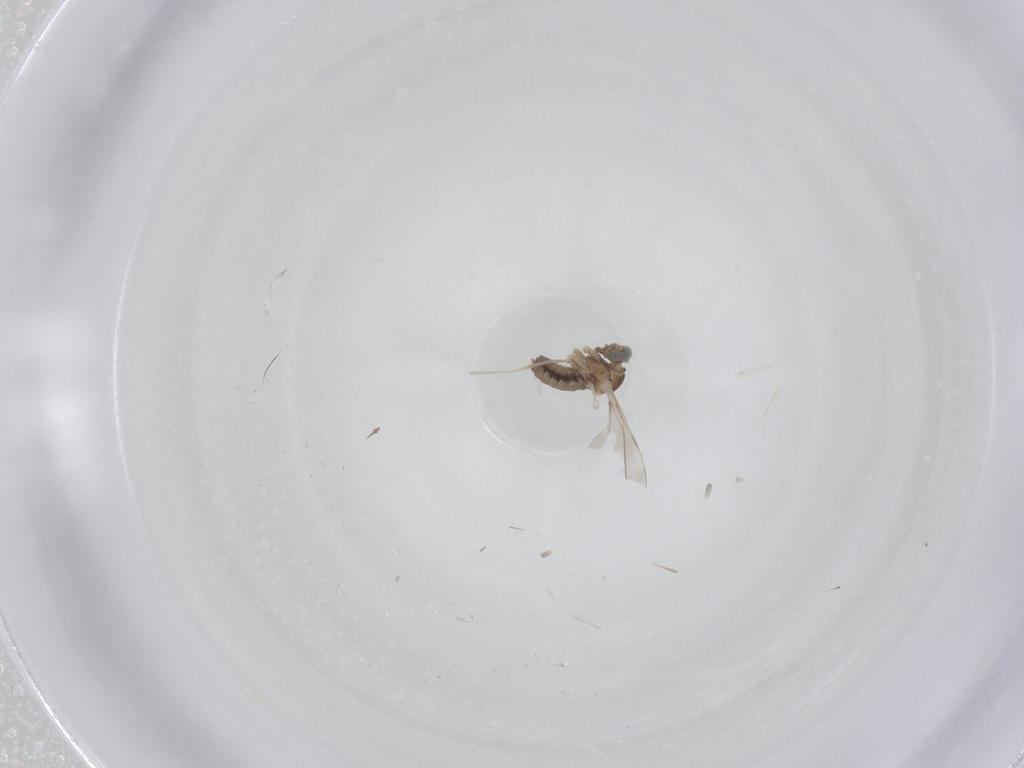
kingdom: Animalia
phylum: Arthropoda
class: Insecta
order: Diptera
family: Cecidomyiidae
